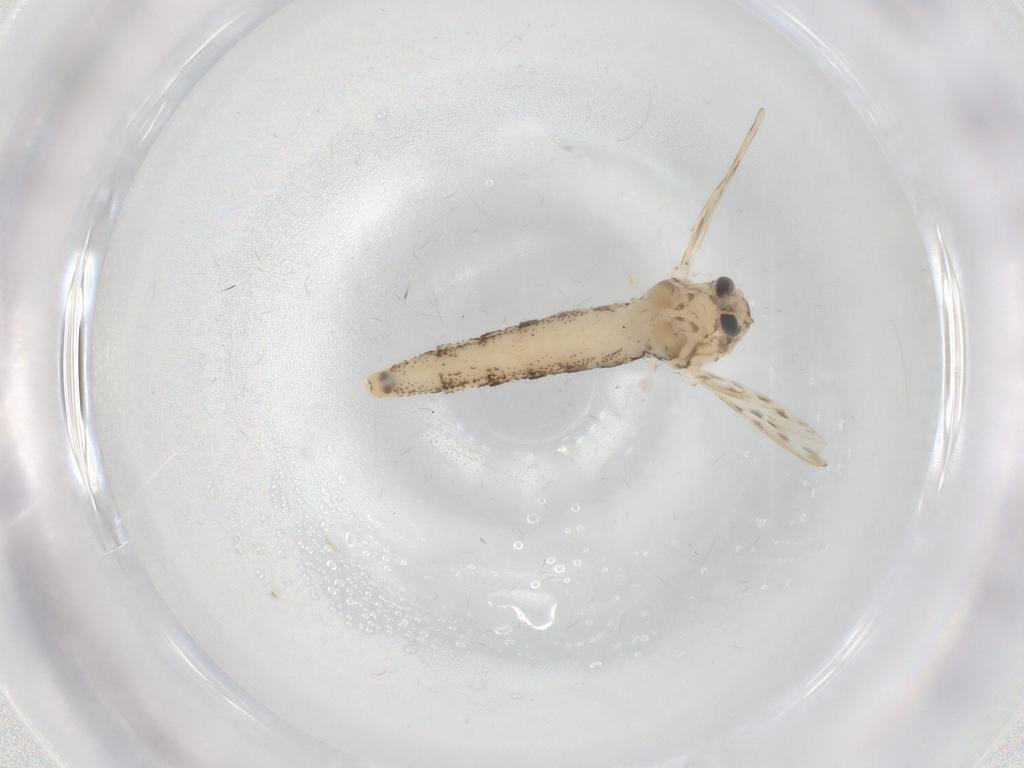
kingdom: Animalia
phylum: Arthropoda
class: Insecta
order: Diptera
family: Chaoboridae
